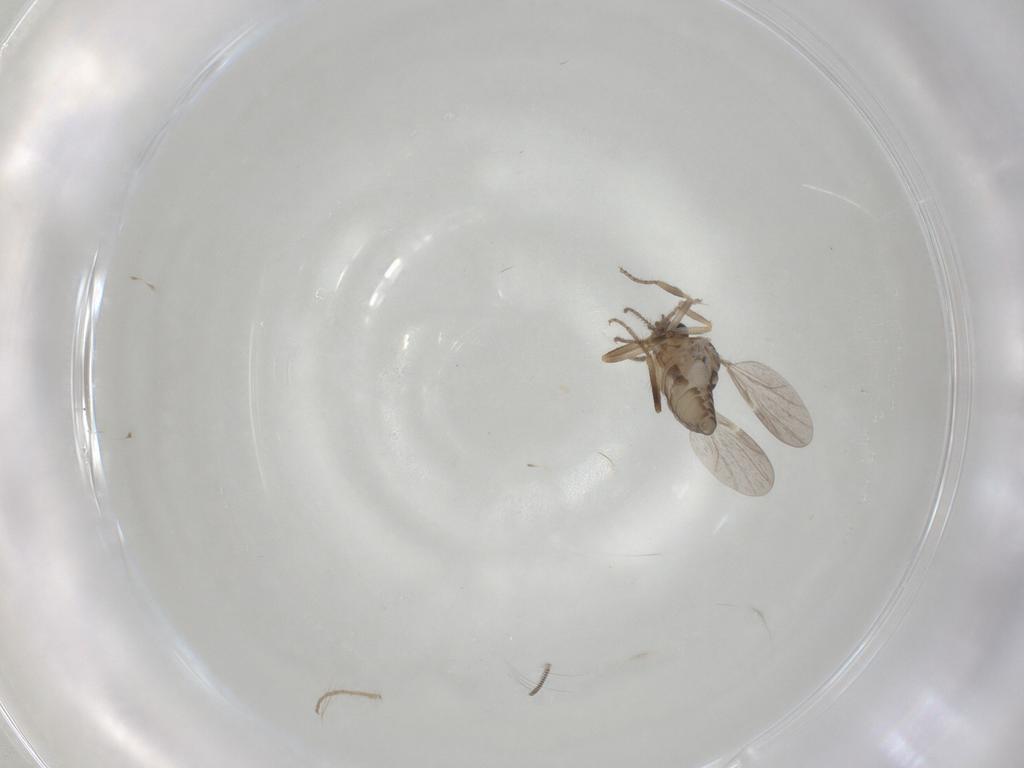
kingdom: Animalia
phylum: Arthropoda
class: Insecta
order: Diptera
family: Ceratopogonidae
